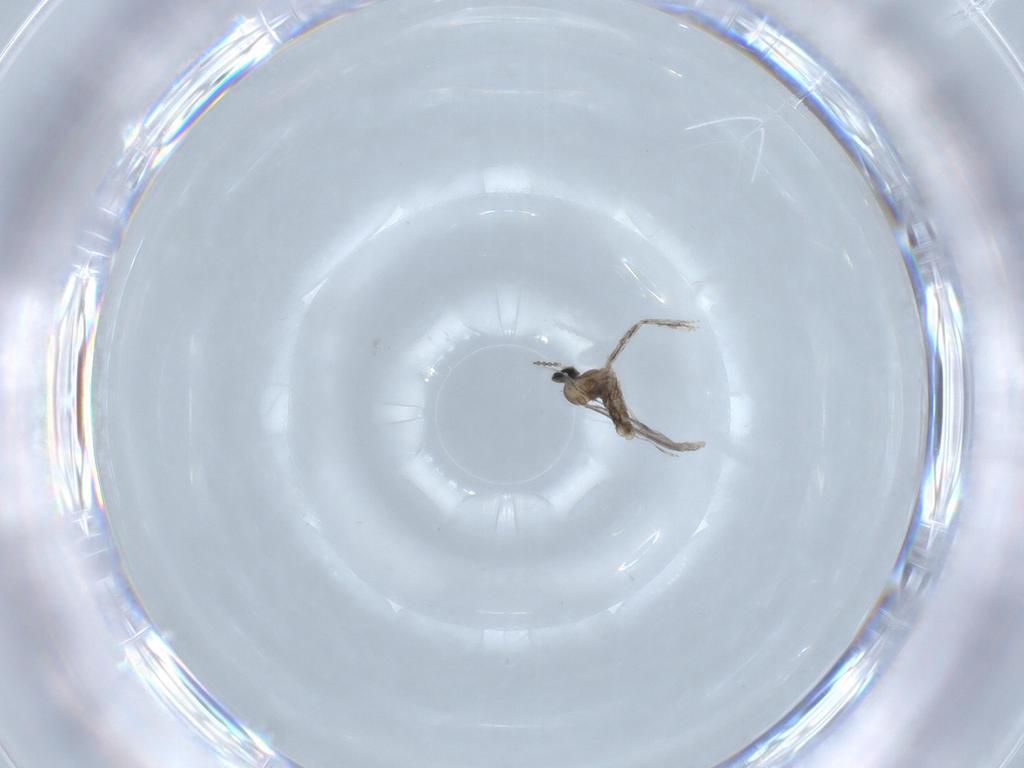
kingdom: Animalia
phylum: Arthropoda
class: Insecta
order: Diptera
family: Cecidomyiidae
